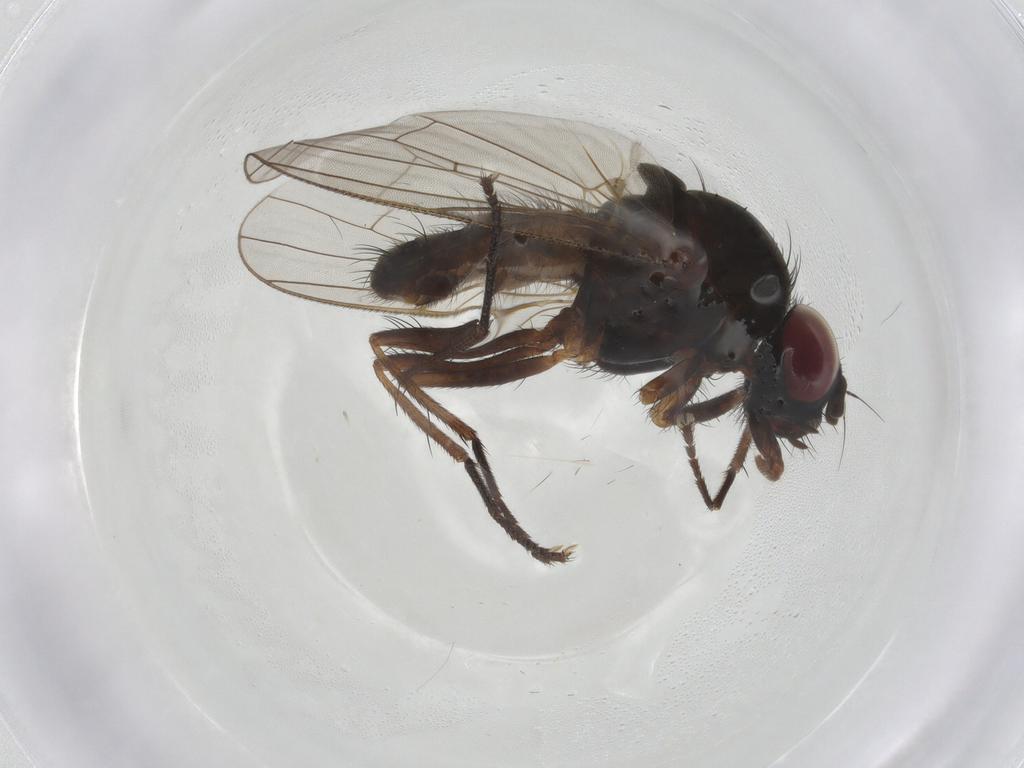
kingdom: Animalia
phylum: Arthropoda
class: Insecta
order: Diptera
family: Anthomyiidae
